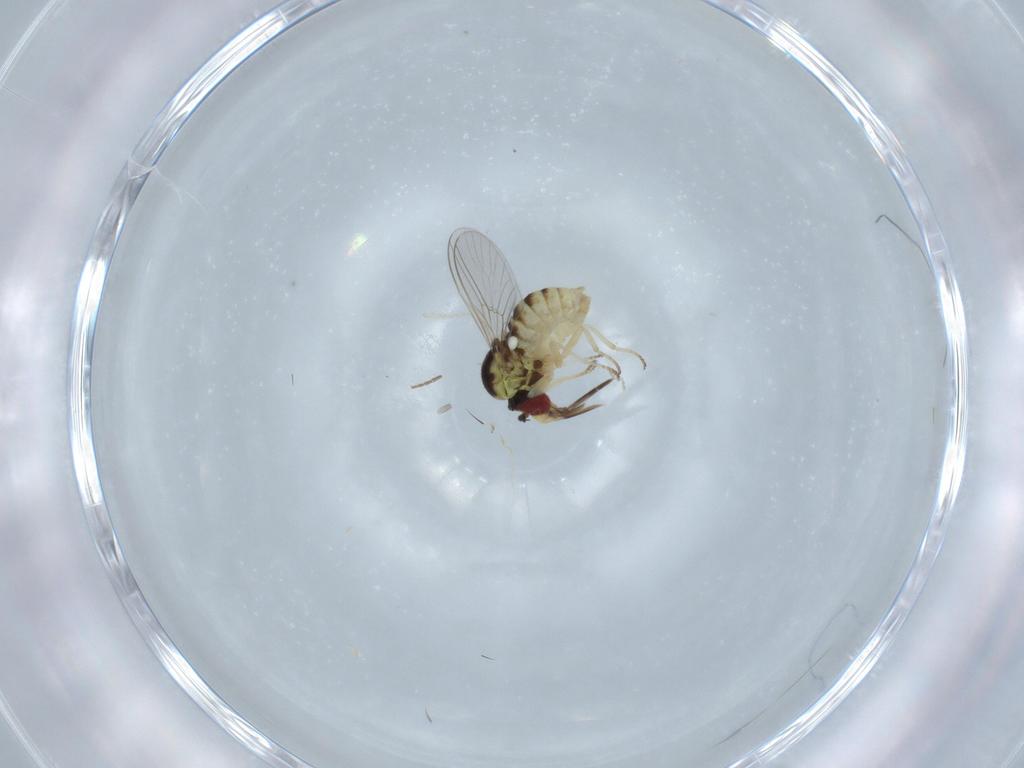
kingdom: Animalia
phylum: Arthropoda
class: Insecta
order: Diptera
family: Bombyliidae
